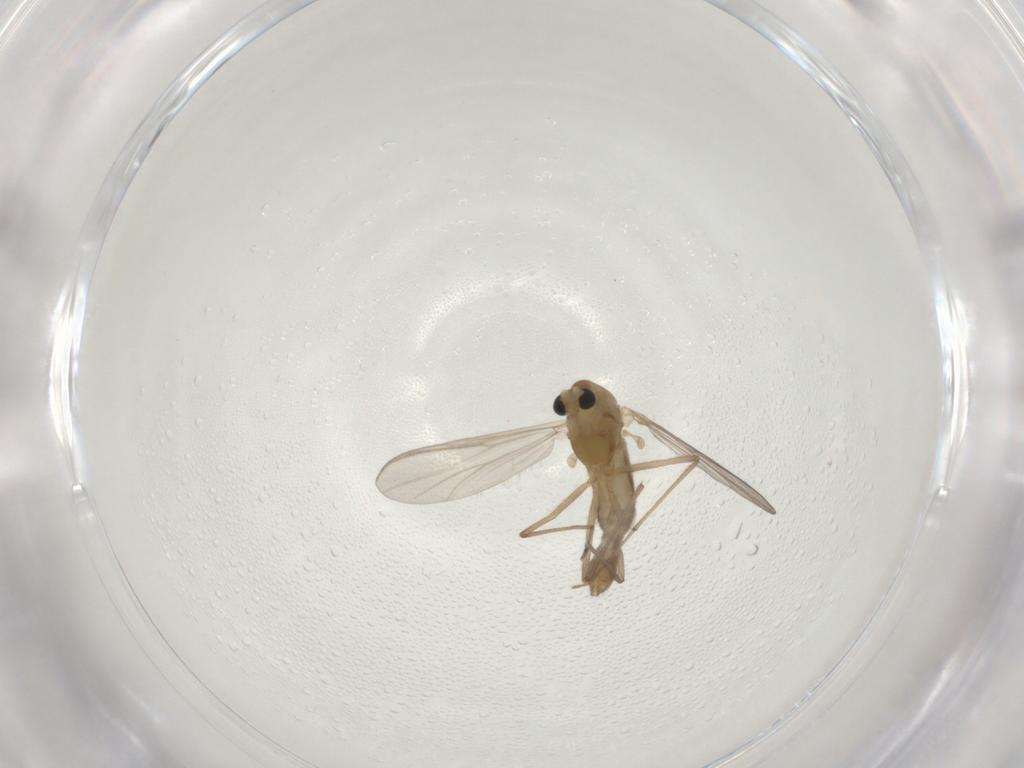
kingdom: Animalia
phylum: Arthropoda
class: Insecta
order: Diptera
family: Chironomidae
